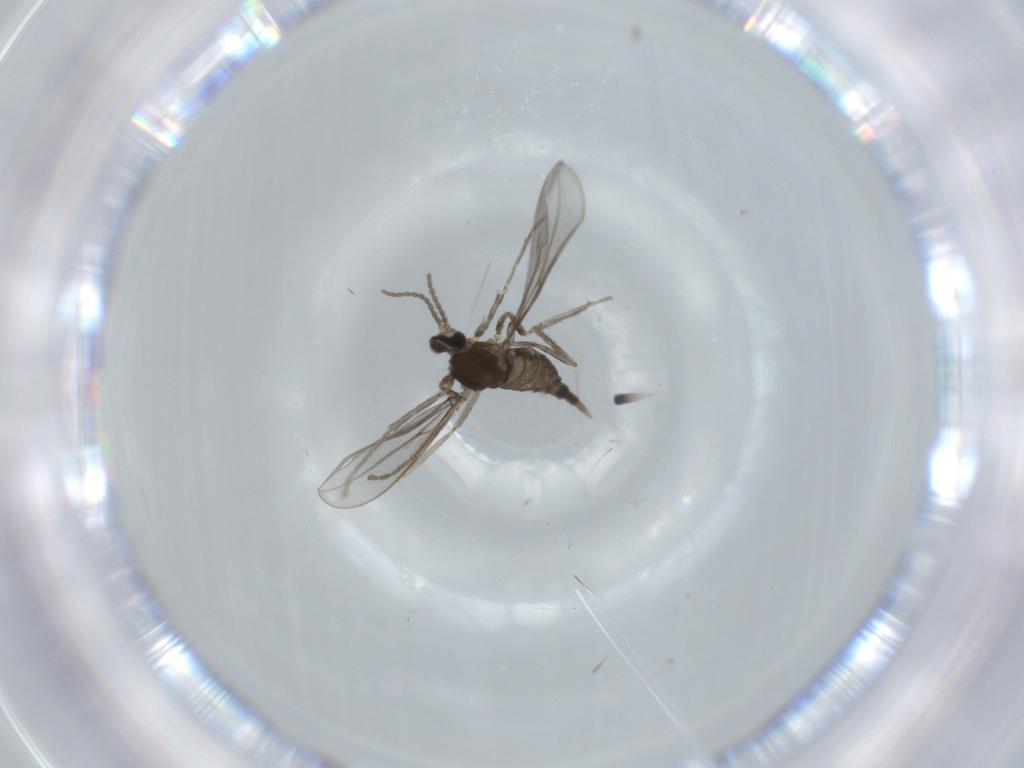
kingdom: Animalia
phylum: Arthropoda
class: Insecta
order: Diptera
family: Cecidomyiidae
